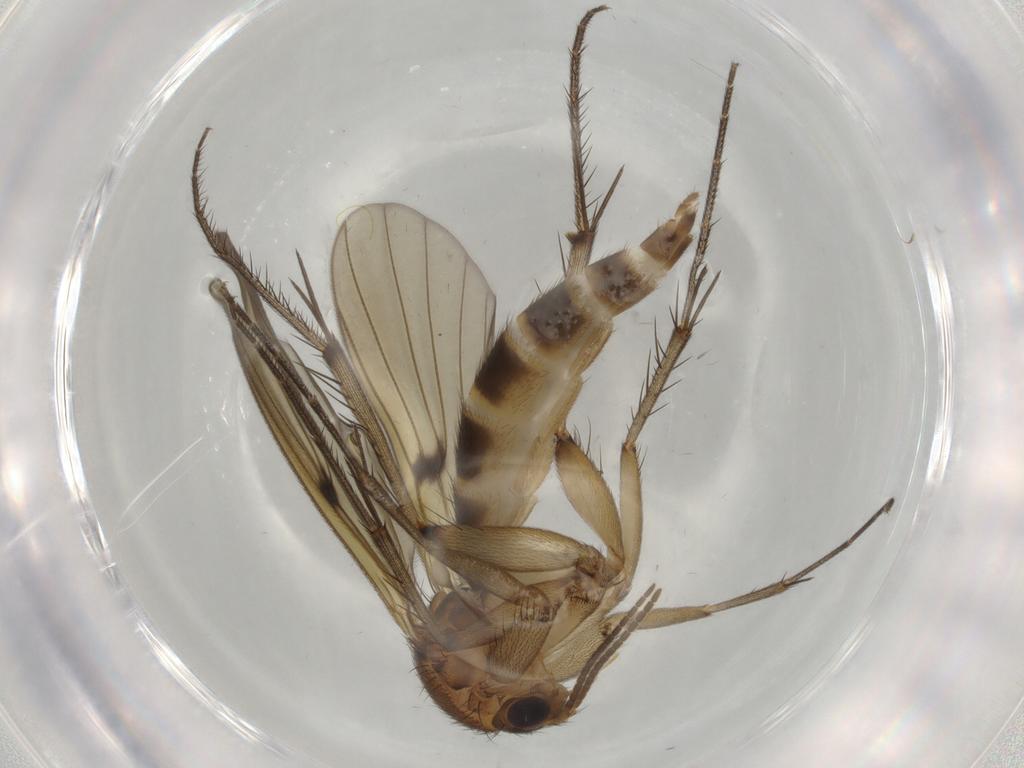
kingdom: Animalia
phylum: Arthropoda
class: Insecta
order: Diptera
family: Mycetophilidae
